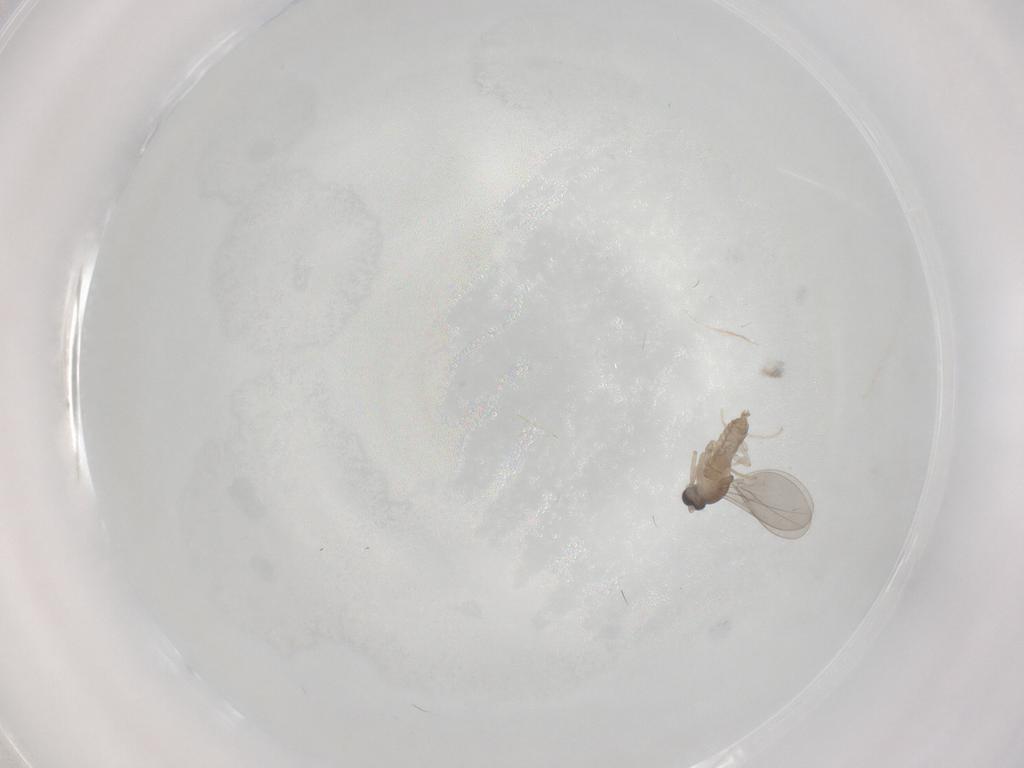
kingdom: Animalia
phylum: Arthropoda
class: Insecta
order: Diptera
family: Cecidomyiidae
